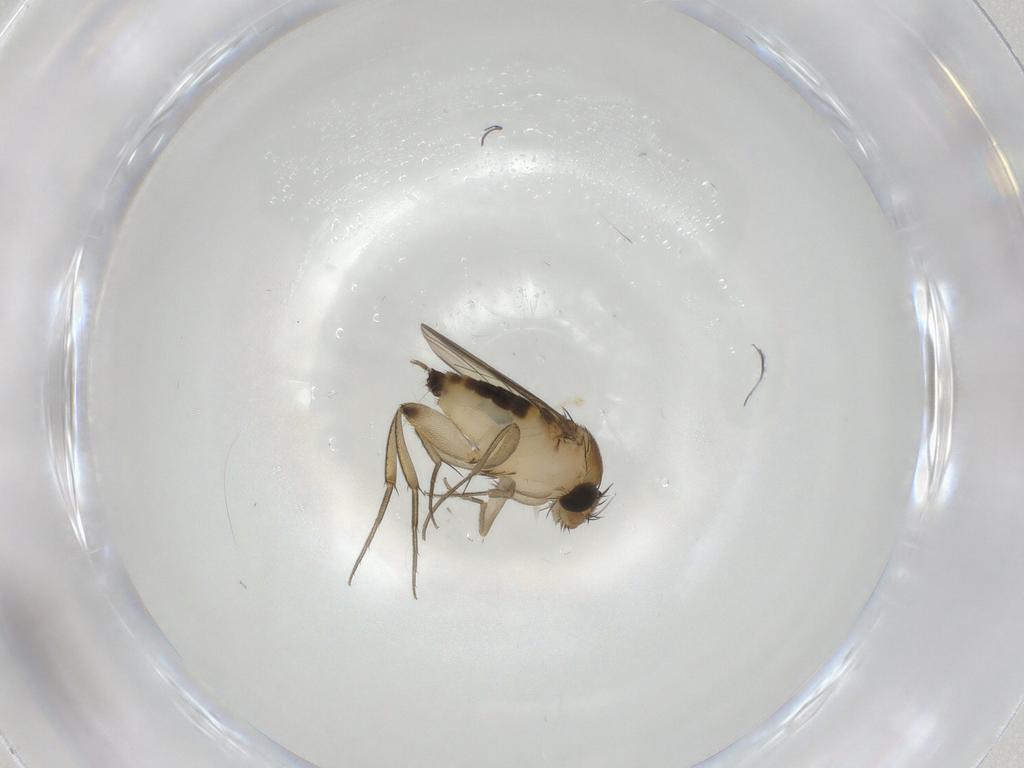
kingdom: Animalia
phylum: Arthropoda
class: Insecta
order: Diptera
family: Phoridae
